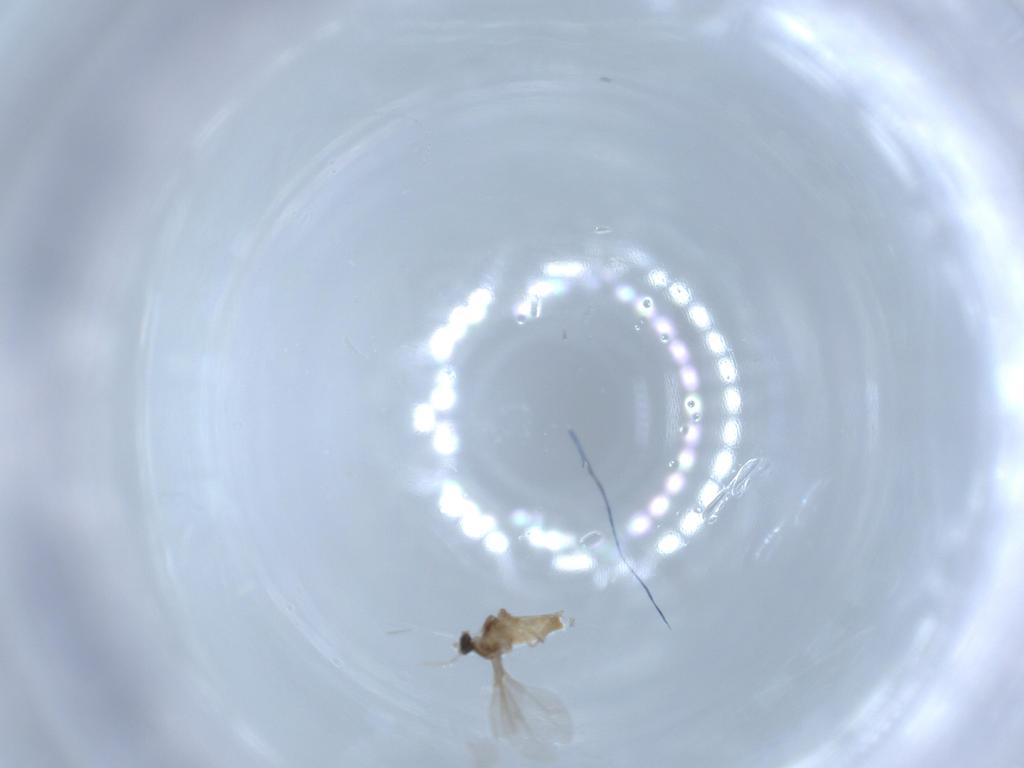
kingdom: Animalia
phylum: Arthropoda
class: Insecta
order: Diptera
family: Cecidomyiidae
